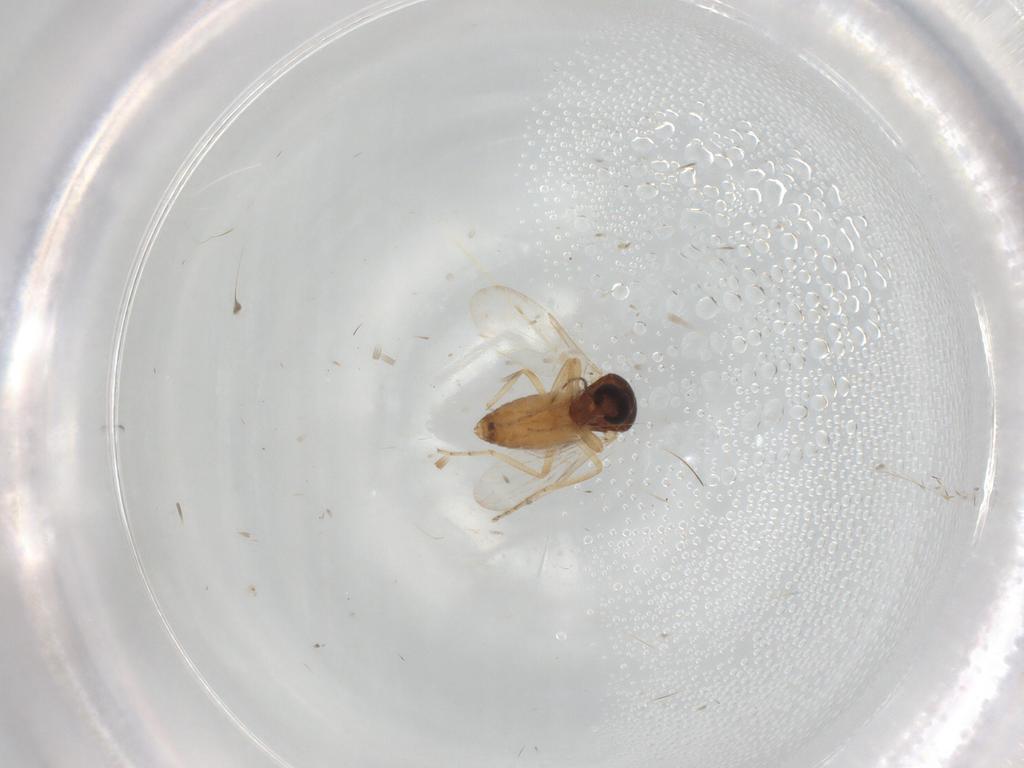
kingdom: Animalia
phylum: Arthropoda
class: Insecta
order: Diptera
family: Ceratopogonidae
